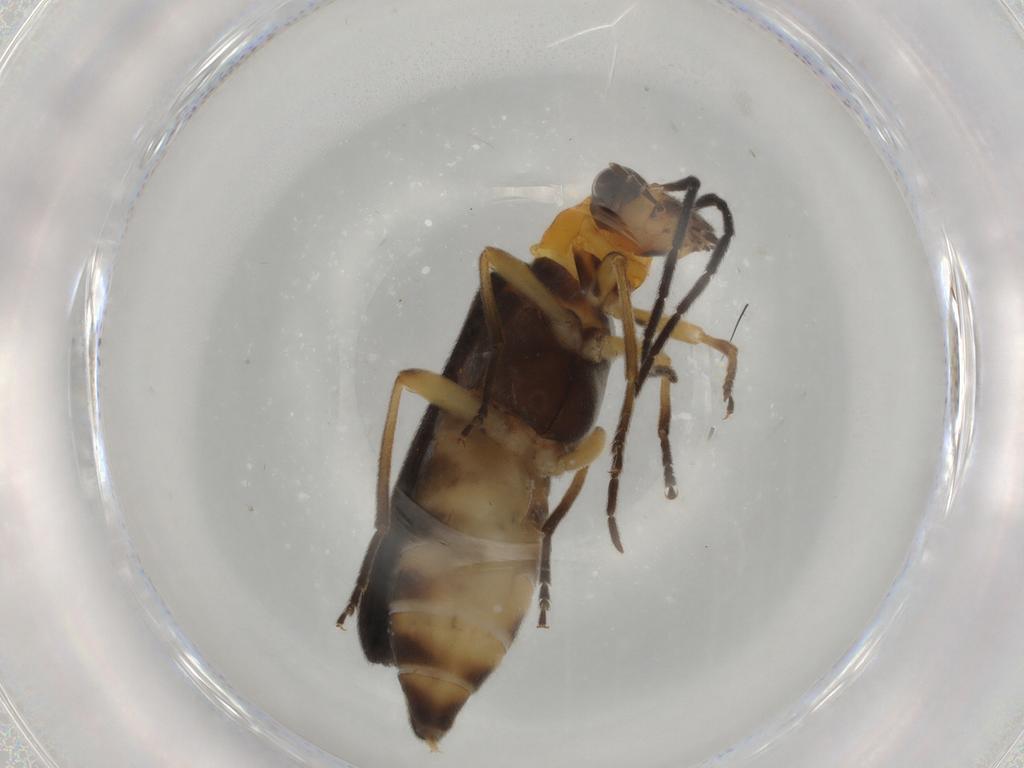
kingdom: Animalia
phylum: Arthropoda
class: Insecta
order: Coleoptera
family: Oedemeridae
